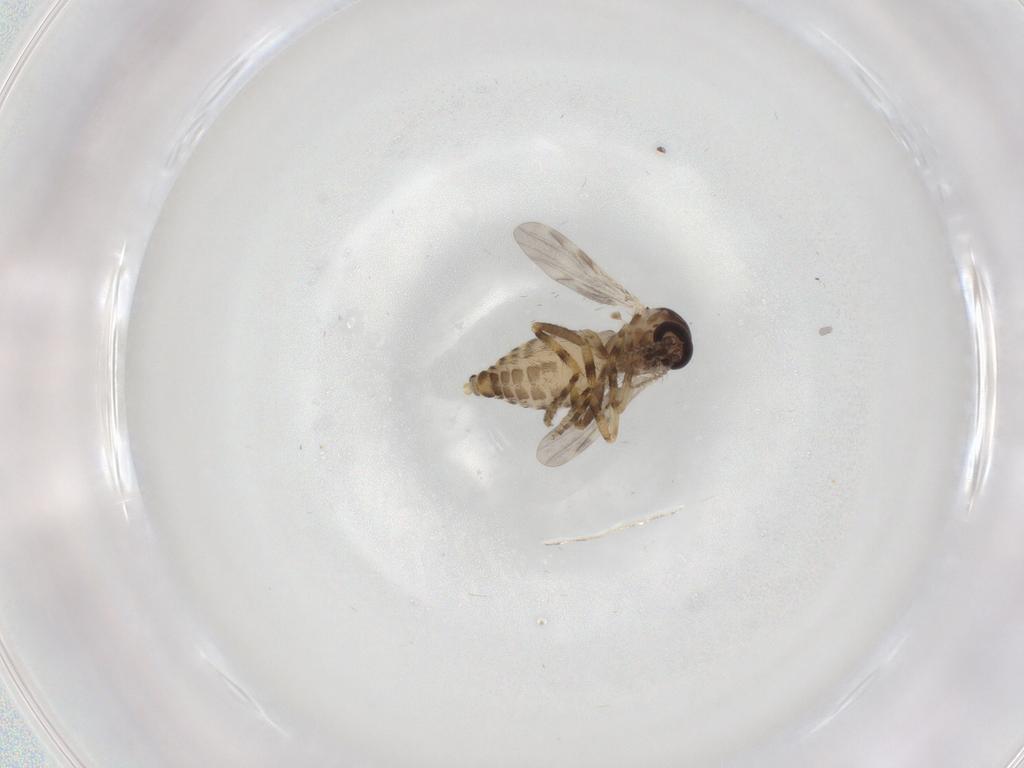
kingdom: Animalia
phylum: Arthropoda
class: Insecta
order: Diptera
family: Ceratopogonidae
